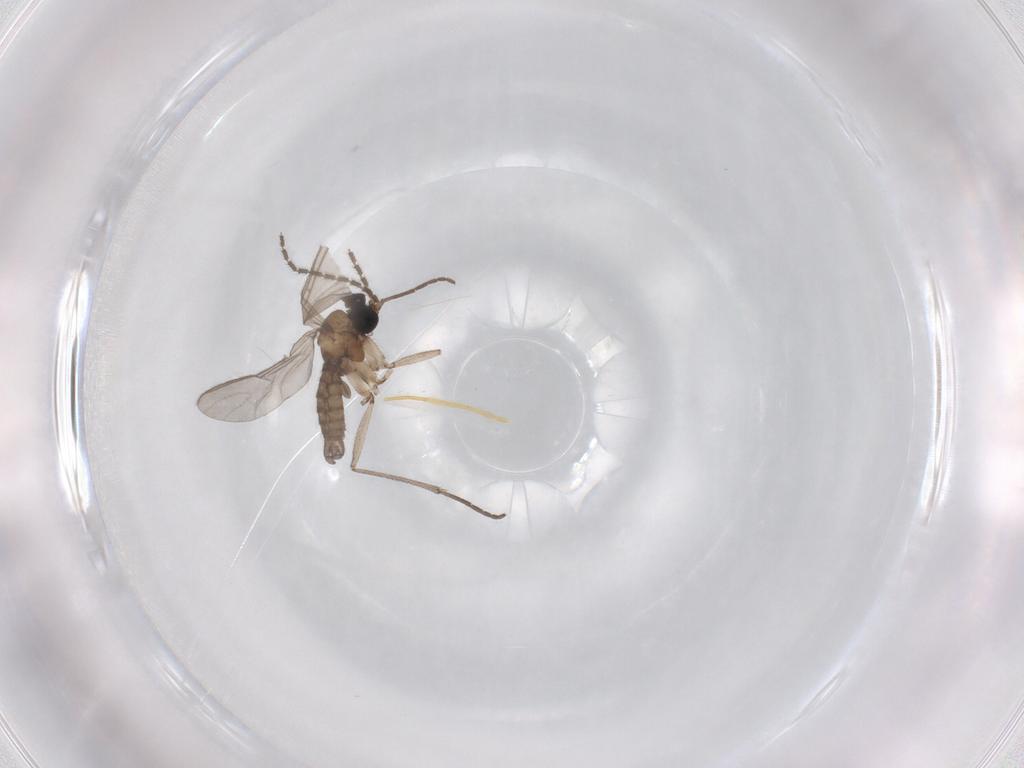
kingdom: Animalia
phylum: Arthropoda
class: Insecta
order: Diptera
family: Sciaridae
